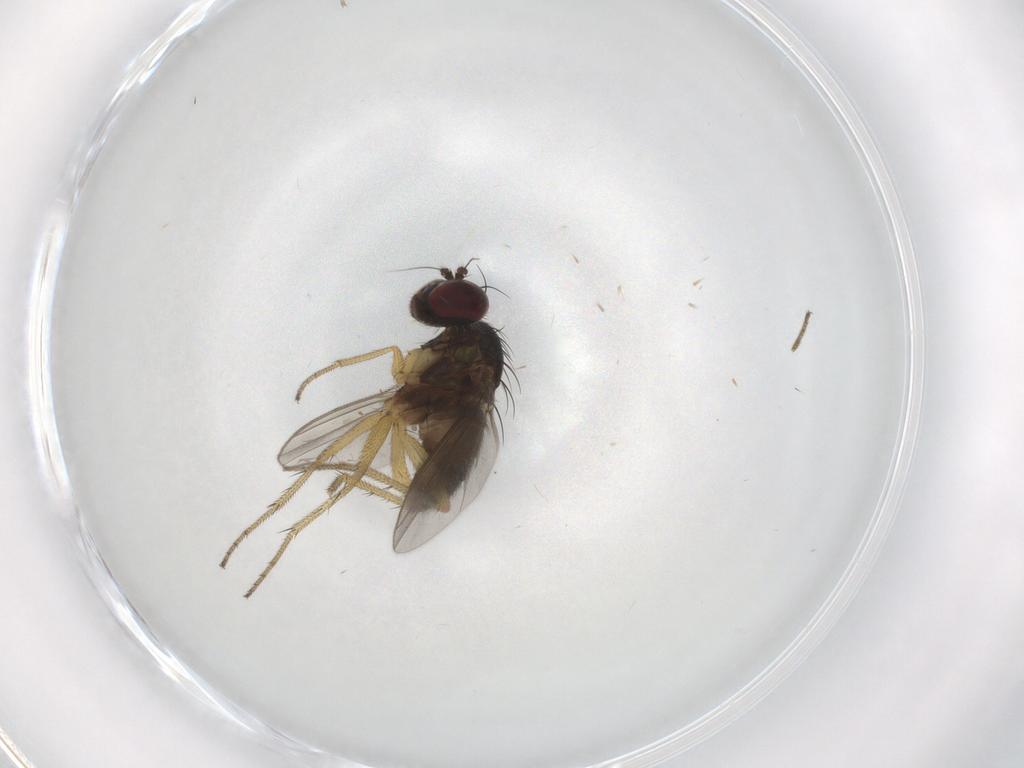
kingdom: Animalia
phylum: Arthropoda
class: Insecta
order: Diptera
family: Dolichopodidae
